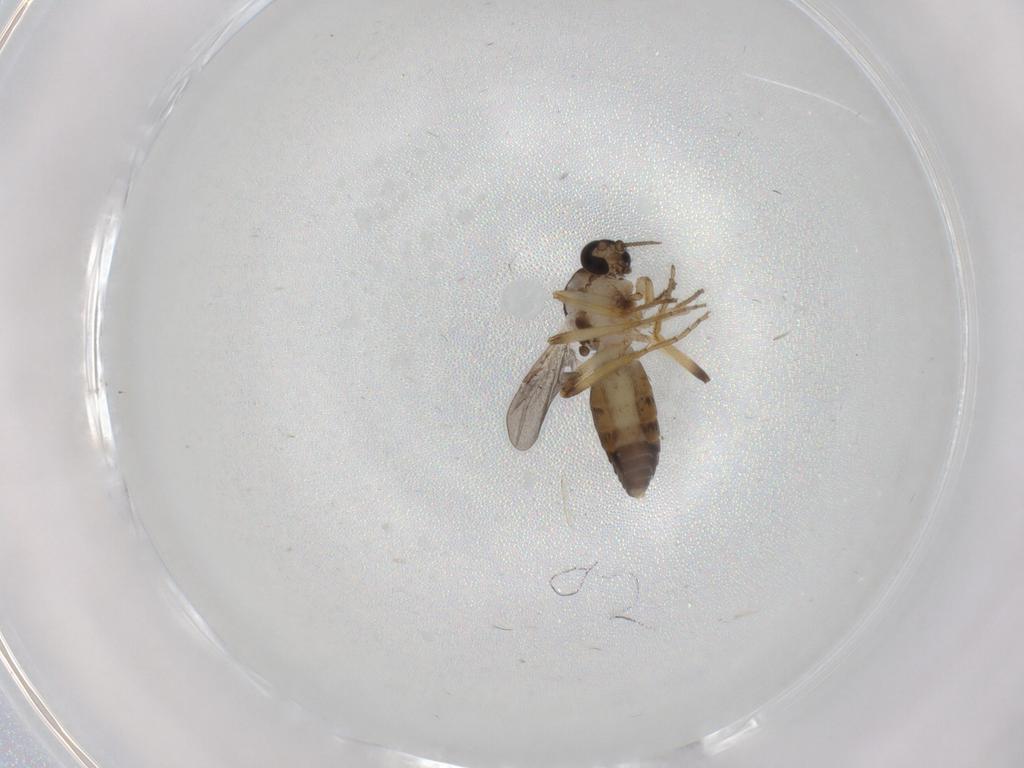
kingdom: Animalia
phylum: Arthropoda
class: Insecta
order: Diptera
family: Ceratopogonidae
